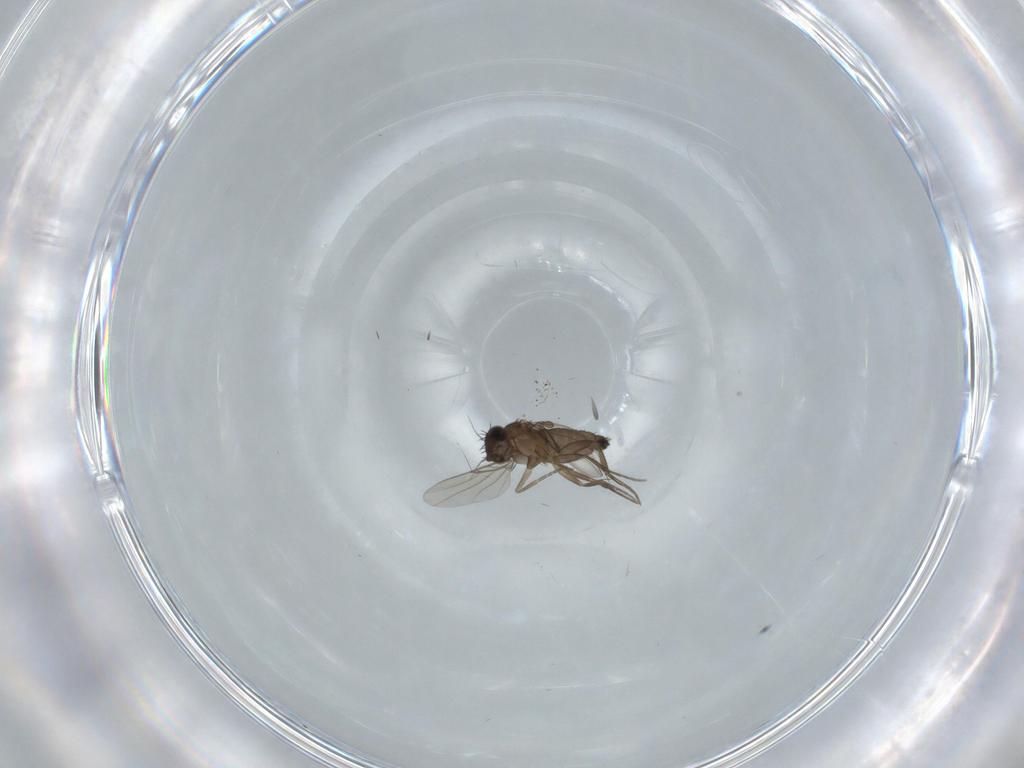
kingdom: Animalia
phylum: Arthropoda
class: Insecta
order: Diptera
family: Phoridae
